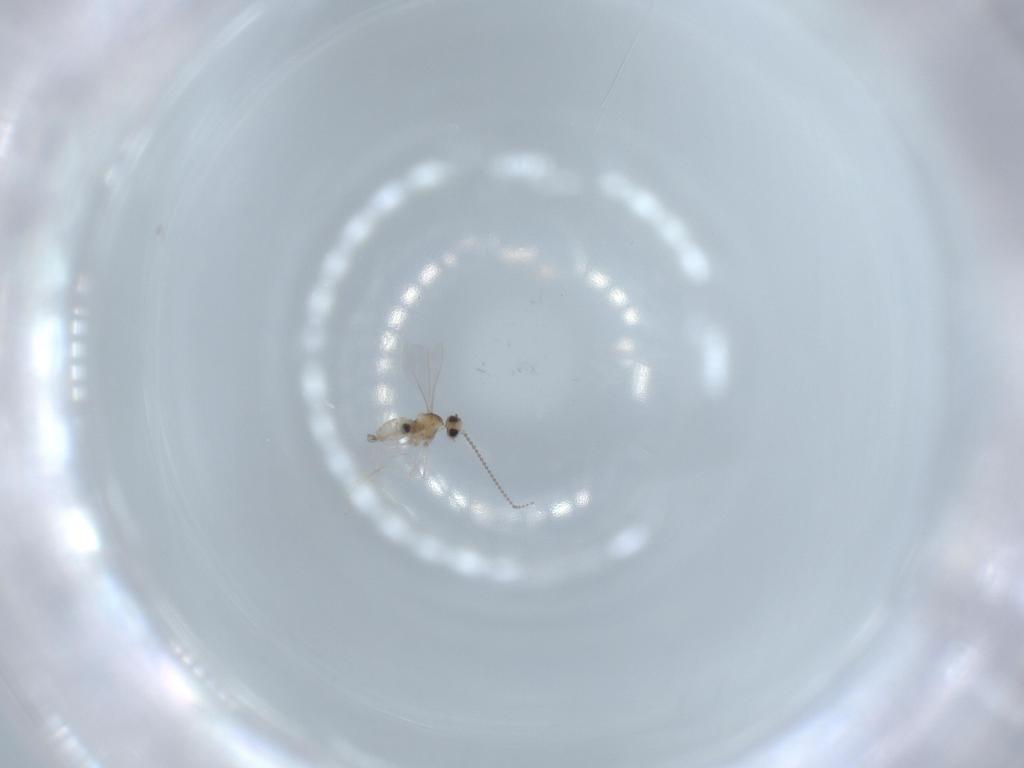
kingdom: Animalia
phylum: Arthropoda
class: Insecta
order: Diptera
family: Cecidomyiidae
